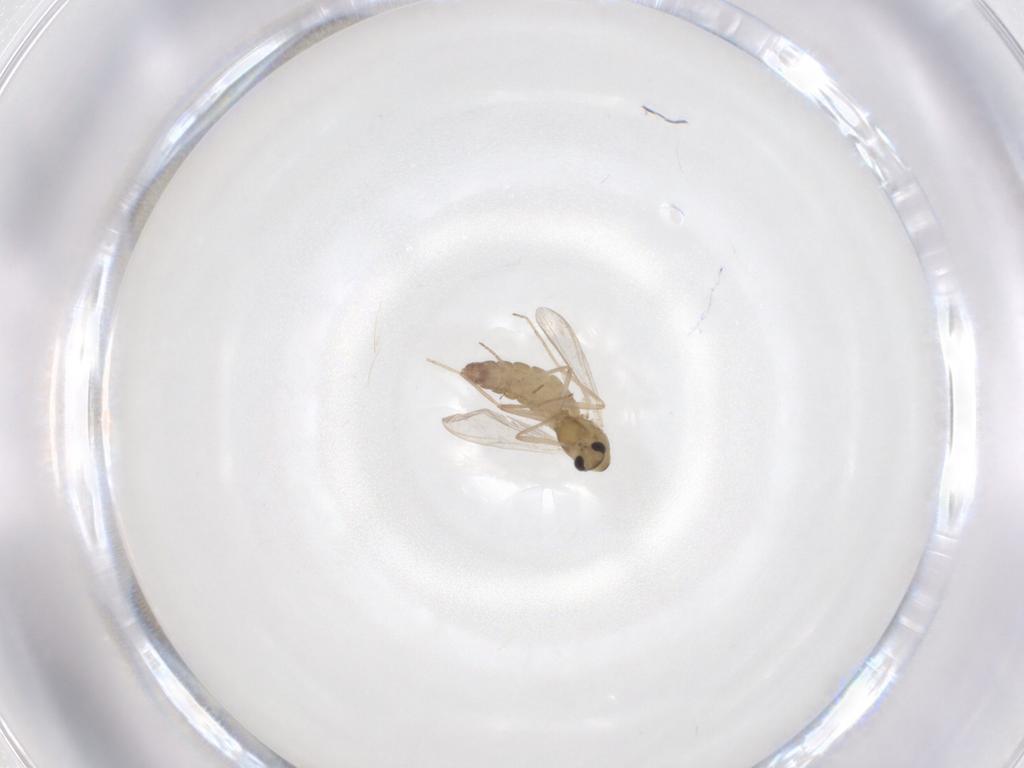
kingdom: Animalia
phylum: Arthropoda
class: Insecta
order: Diptera
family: Chironomidae
